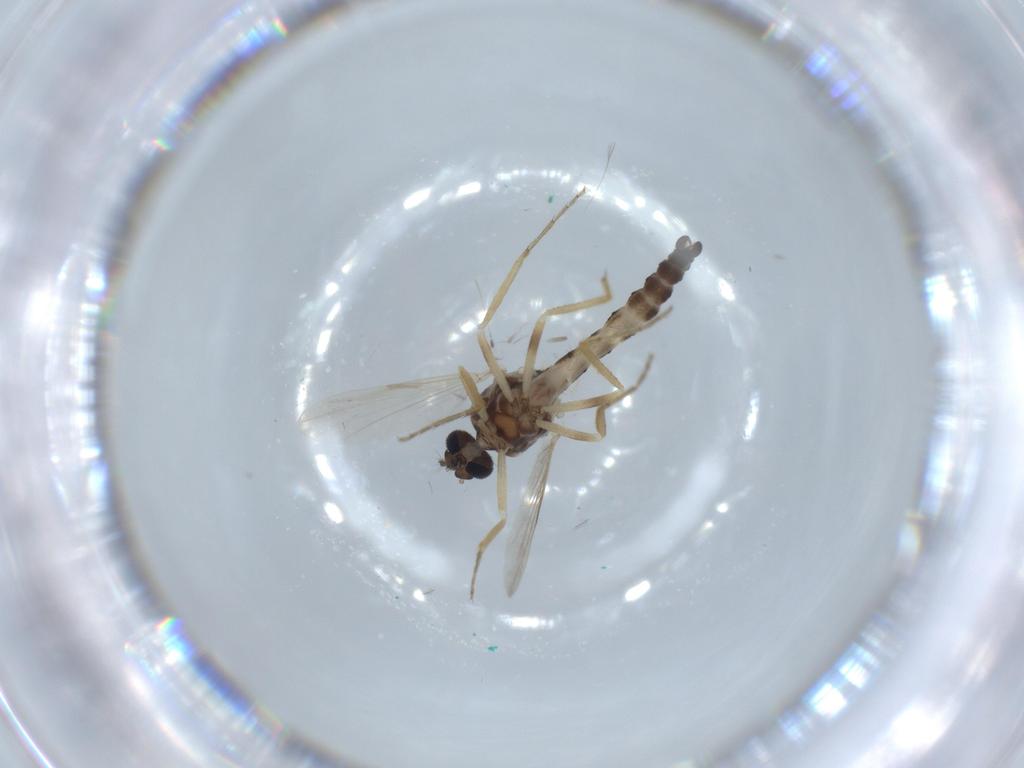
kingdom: Animalia
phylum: Arthropoda
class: Insecta
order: Diptera
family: Ceratopogonidae
